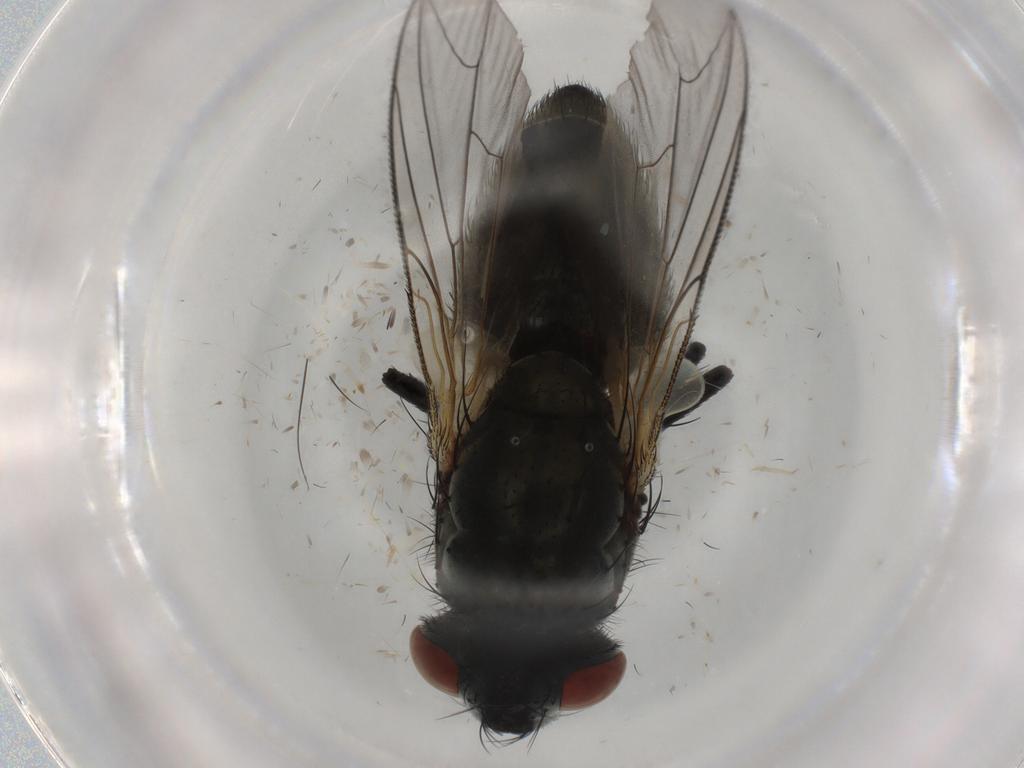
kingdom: Animalia
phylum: Arthropoda
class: Insecta
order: Diptera
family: Sarcophagidae
